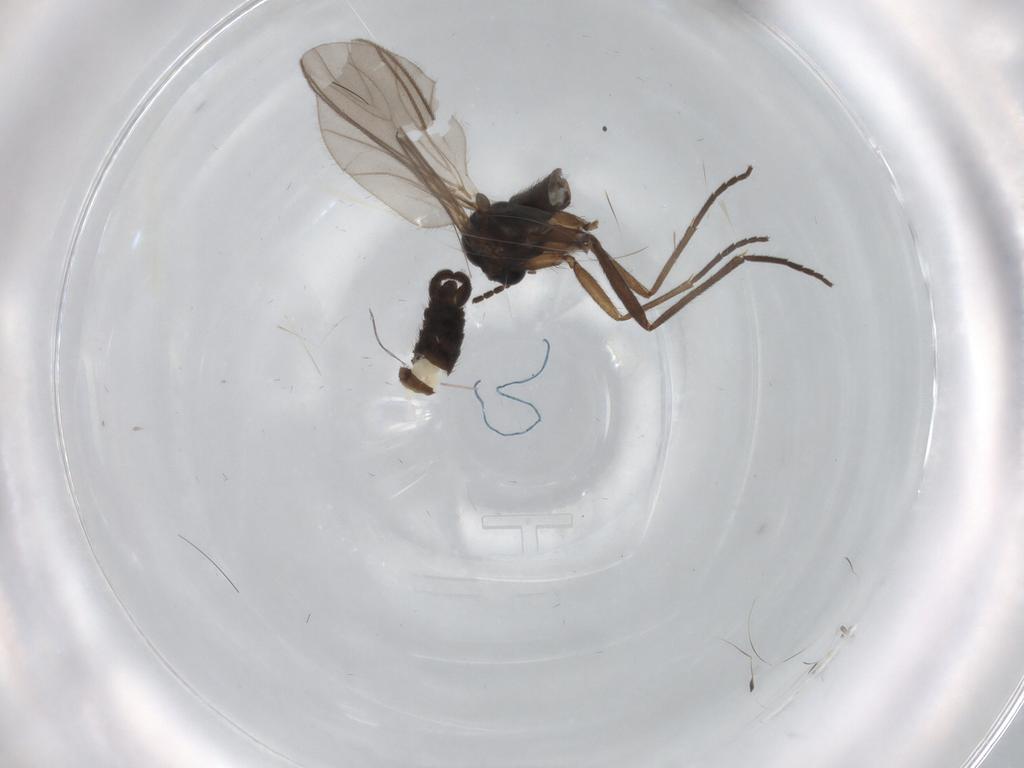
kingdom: Animalia
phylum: Arthropoda
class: Insecta
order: Diptera
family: Sciaridae
